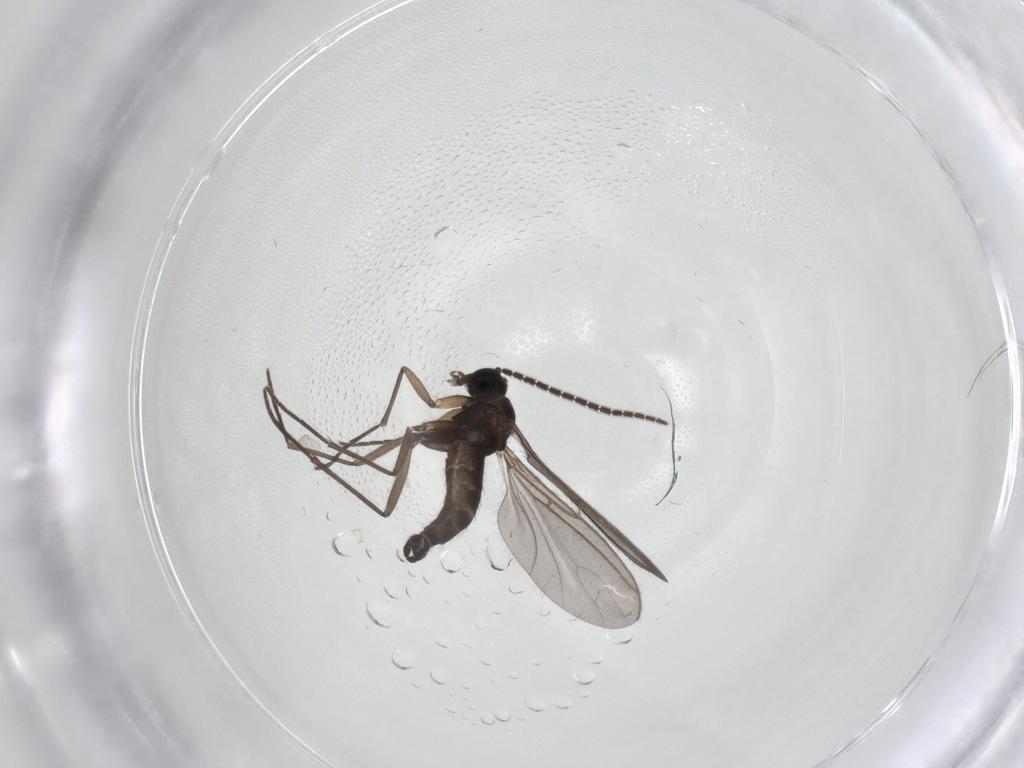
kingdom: Animalia
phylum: Arthropoda
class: Insecta
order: Diptera
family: Sciaridae
